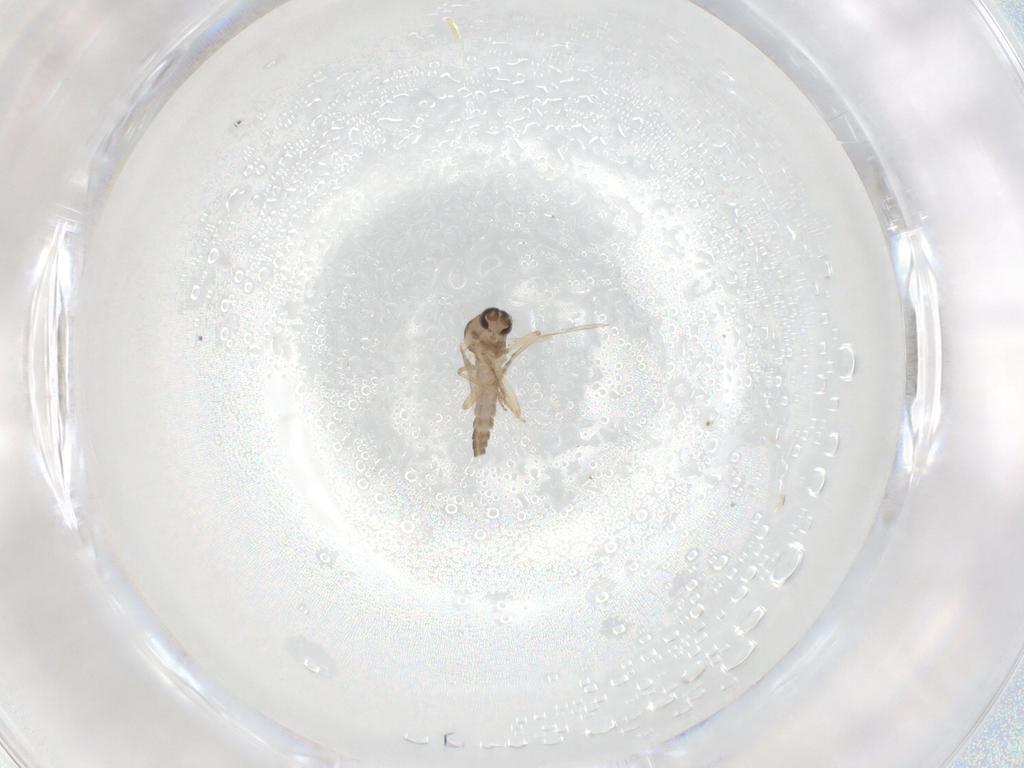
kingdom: Animalia
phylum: Arthropoda
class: Insecta
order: Diptera
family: Ceratopogonidae
